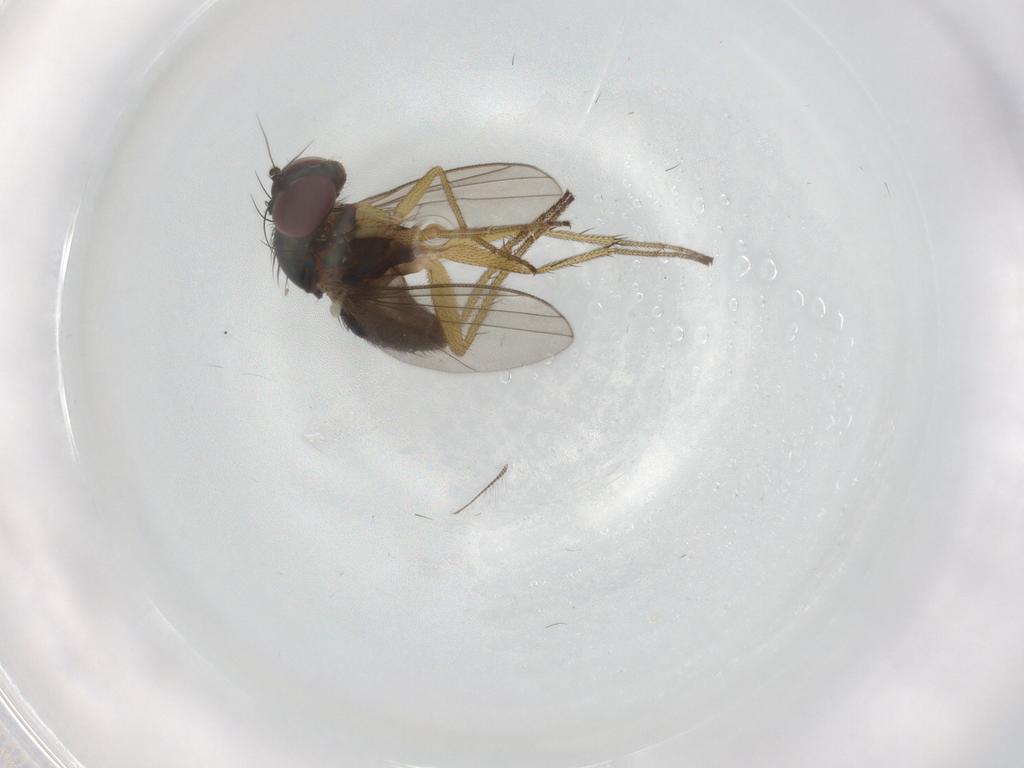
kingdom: Animalia
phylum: Arthropoda
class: Insecta
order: Diptera
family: Chironomidae
